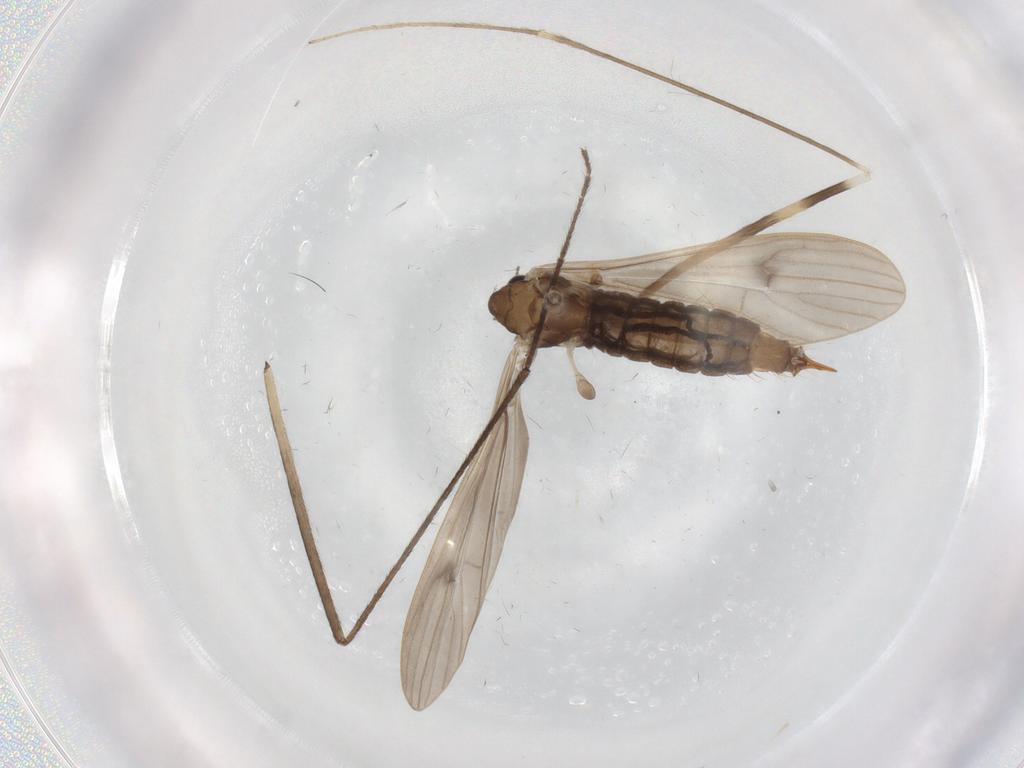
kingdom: Animalia
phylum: Arthropoda
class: Insecta
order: Diptera
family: Limoniidae
